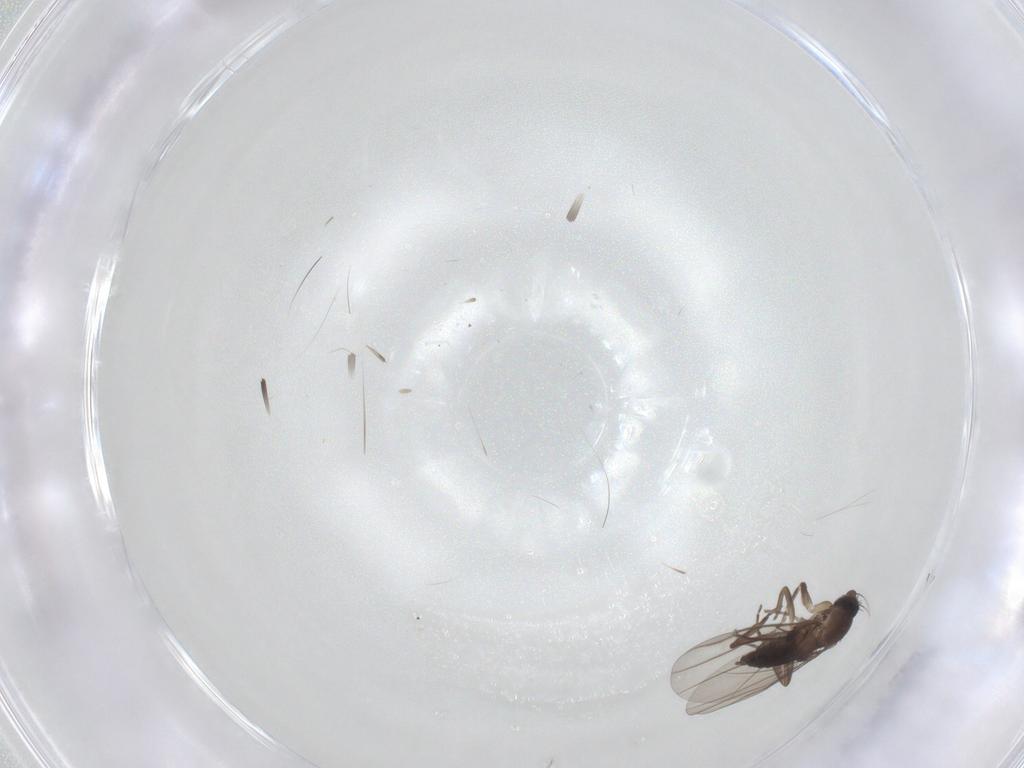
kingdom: Animalia
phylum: Arthropoda
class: Insecta
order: Diptera
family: Phoridae
